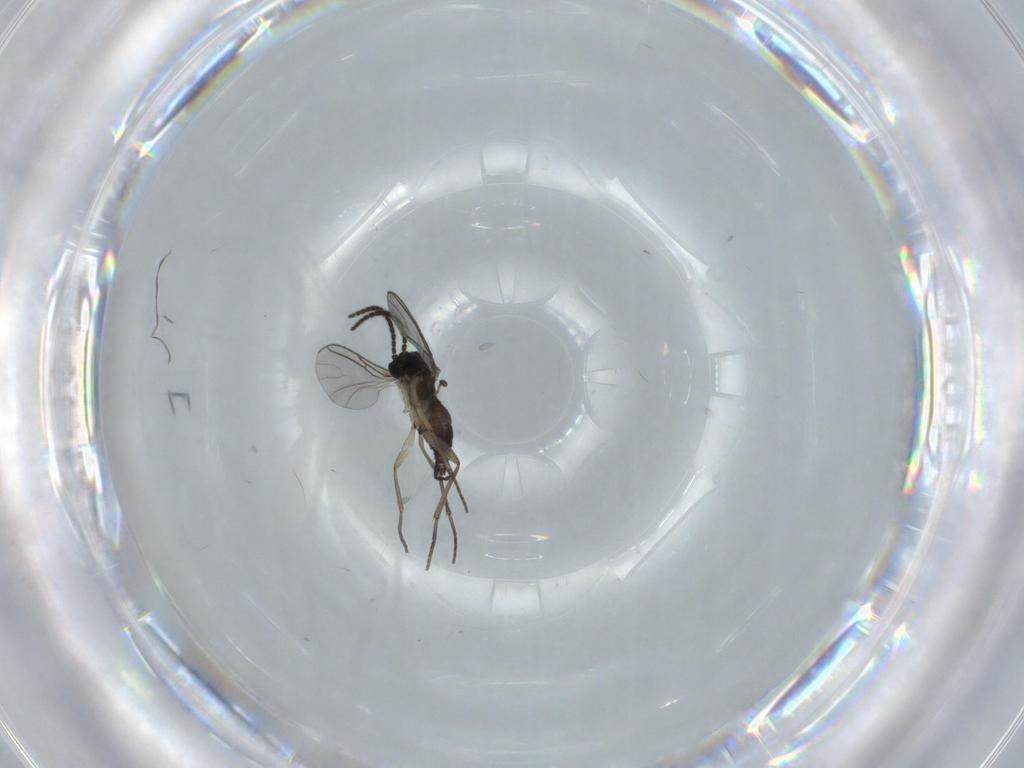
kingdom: Animalia
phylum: Arthropoda
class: Insecta
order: Diptera
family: Sciaridae
